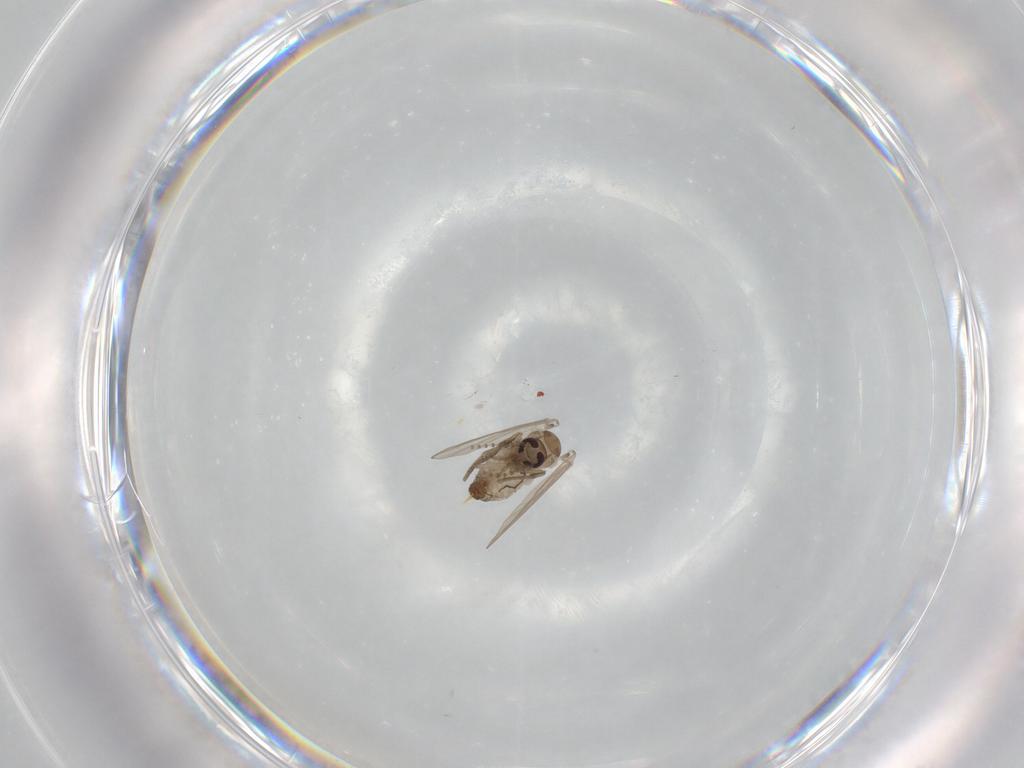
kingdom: Animalia
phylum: Arthropoda
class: Insecta
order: Diptera
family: Psychodidae
